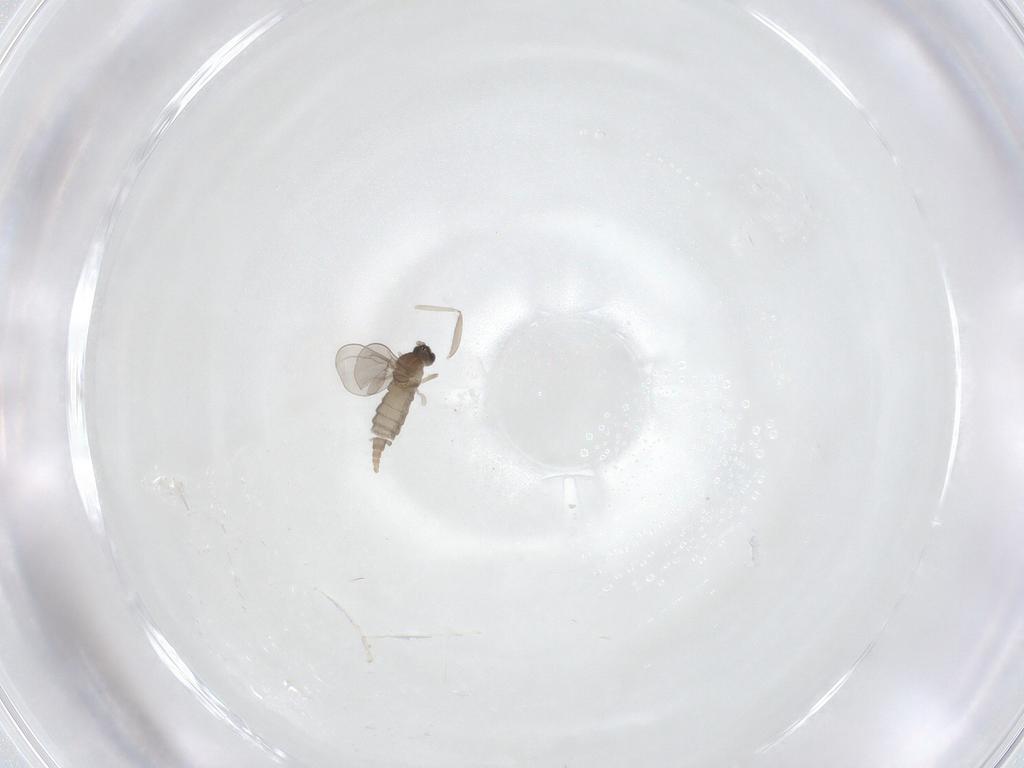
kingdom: Animalia
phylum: Arthropoda
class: Insecta
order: Diptera
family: Cecidomyiidae
